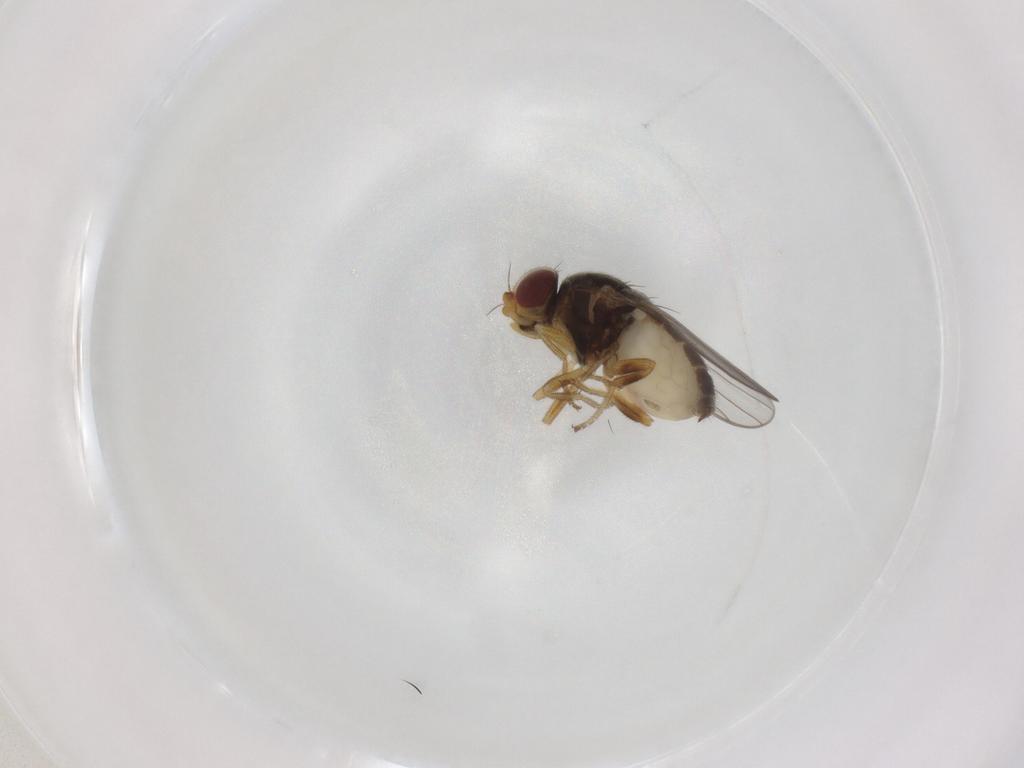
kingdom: Animalia
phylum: Arthropoda
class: Insecta
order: Diptera
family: Chloropidae
